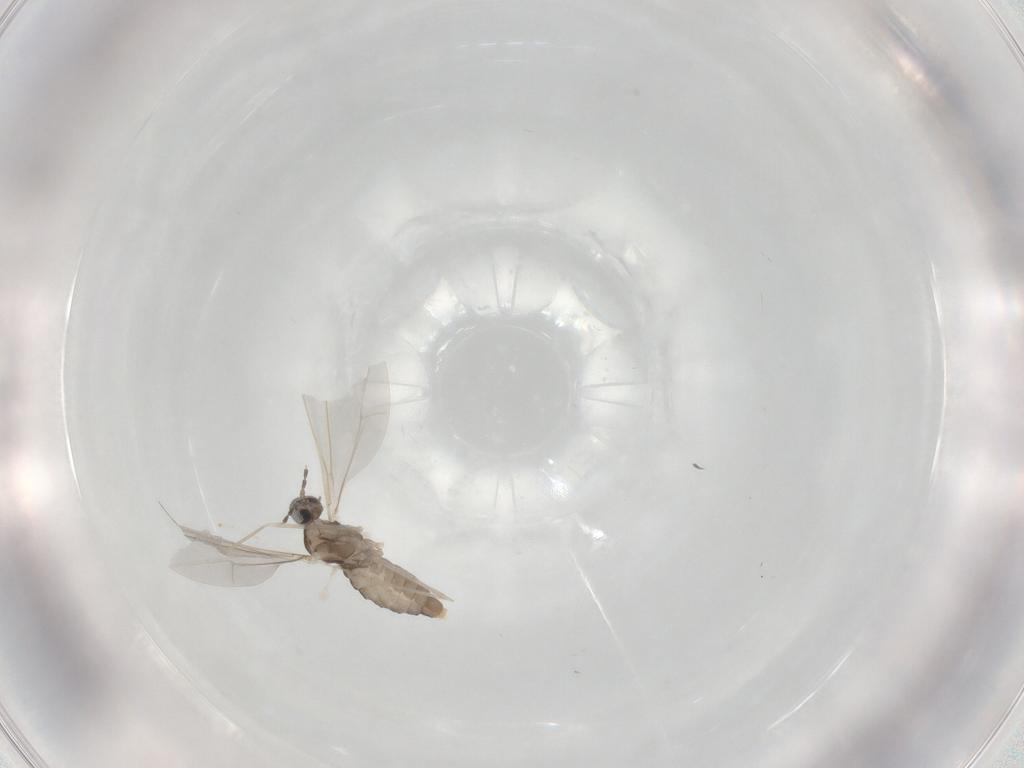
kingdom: Animalia
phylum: Arthropoda
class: Insecta
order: Diptera
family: Cecidomyiidae
